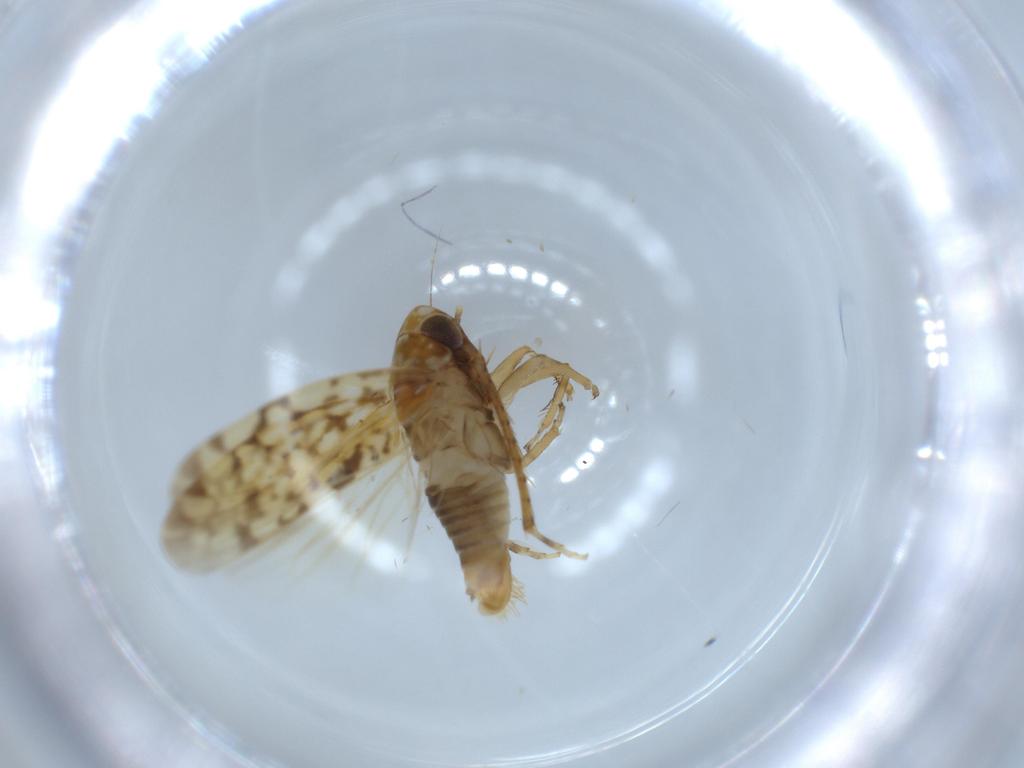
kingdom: Animalia
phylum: Arthropoda
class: Insecta
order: Hemiptera
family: Cicadellidae
